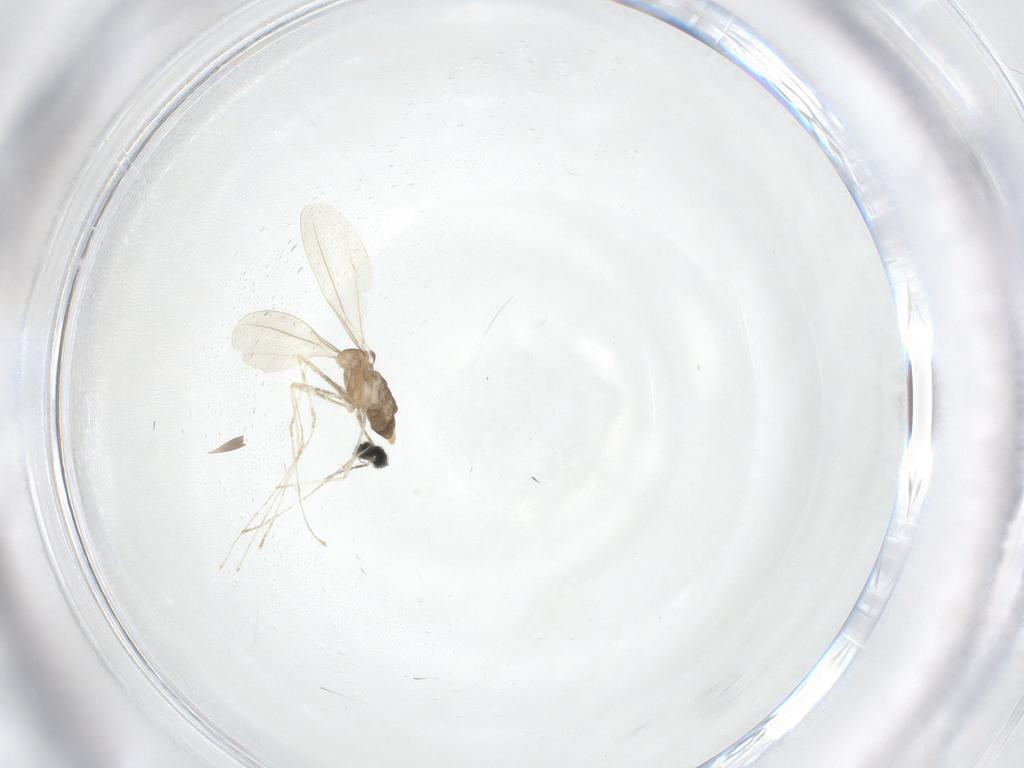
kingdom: Animalia
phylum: Arthropoda
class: Insecta
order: Diptera
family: Cecidomyiidae
